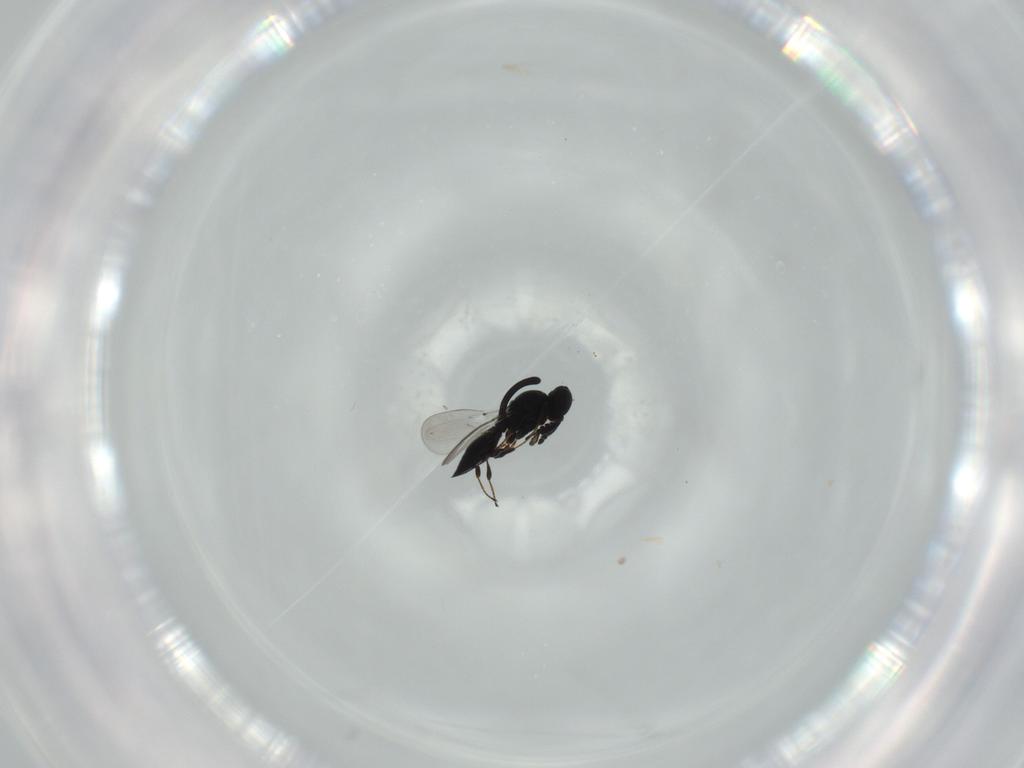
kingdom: Animalia
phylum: Arthropoda
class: Insecta
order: Hymenoptera
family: Platygastridae
